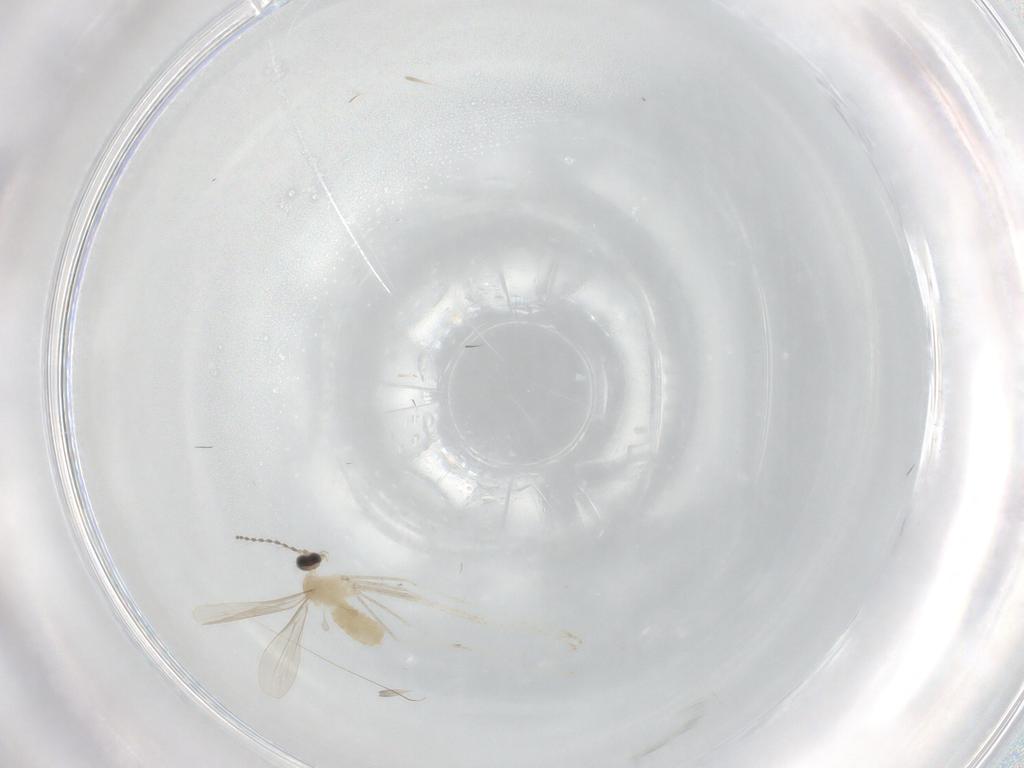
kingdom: Animalia
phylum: Arthropoda
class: Insecta
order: Diptera
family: Cecidomyiidae
